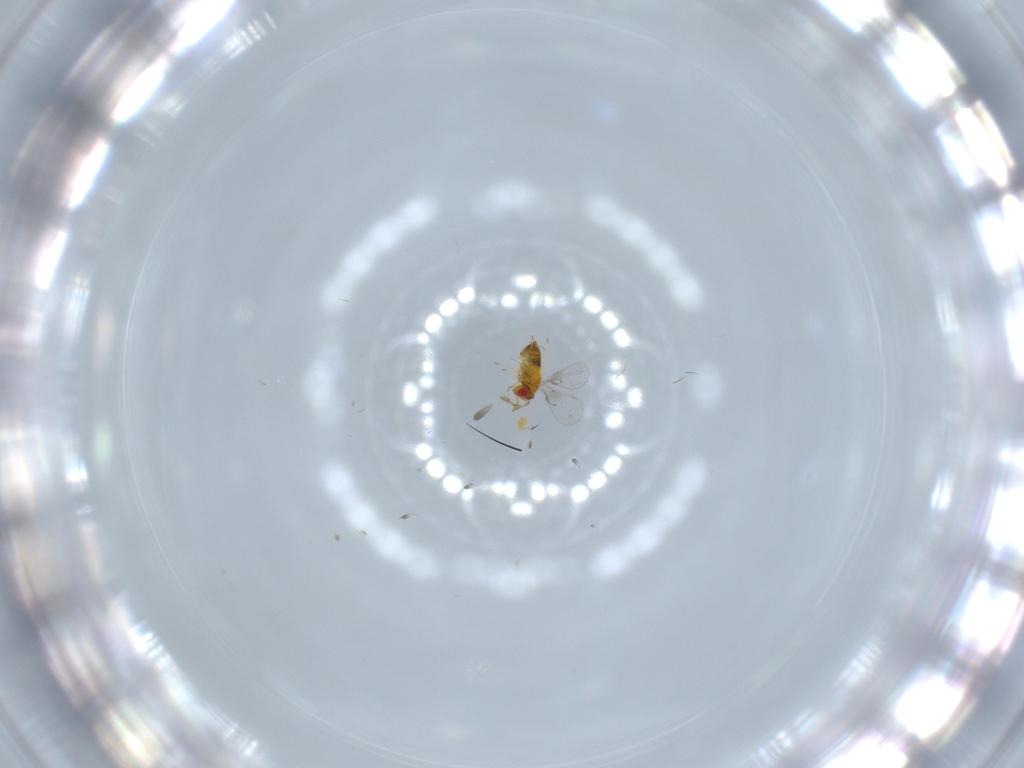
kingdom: Animalia
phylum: Arthropoda
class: Insecta
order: Hymenoptera
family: Trichogrammatidae
